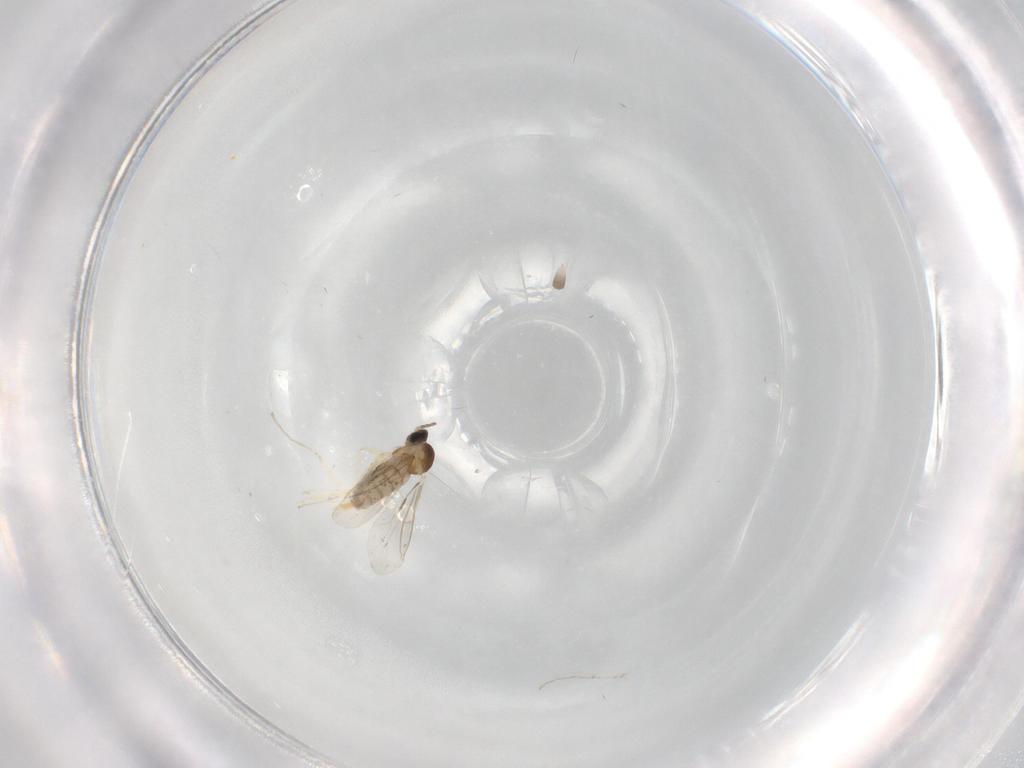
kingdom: Animalia
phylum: Arthropoda
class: Insecta
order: Diptera
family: Cecidomyiidae
